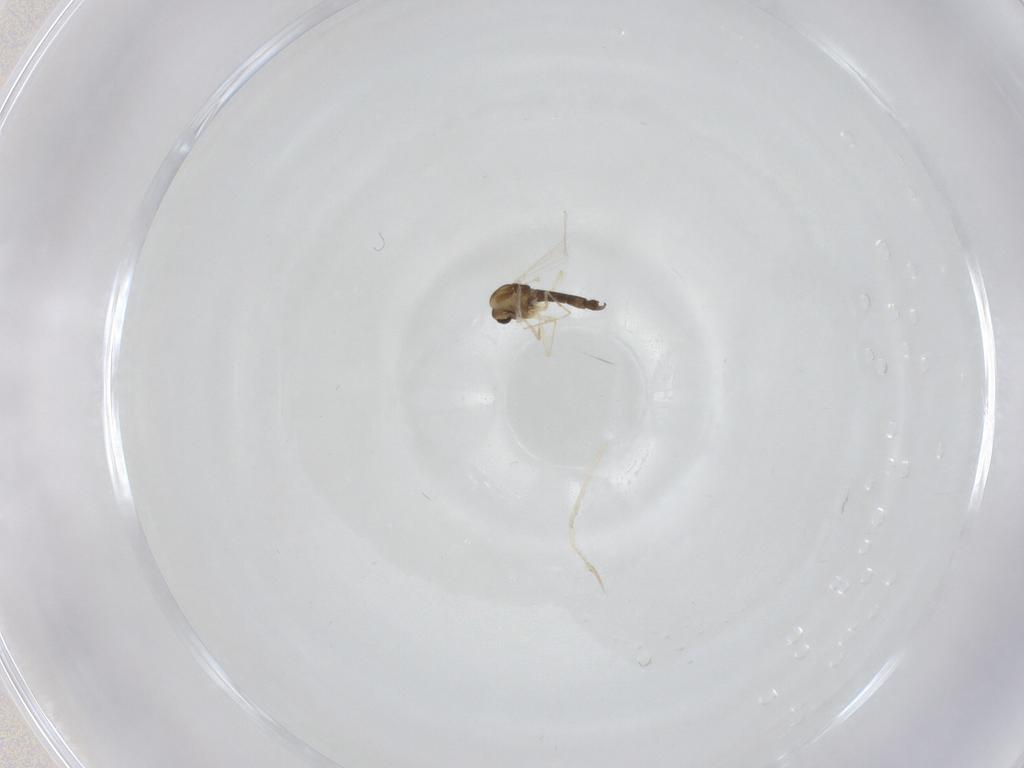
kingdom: Animalia
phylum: Arthropoda
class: Insecta
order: Diptera
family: Chironomidae
